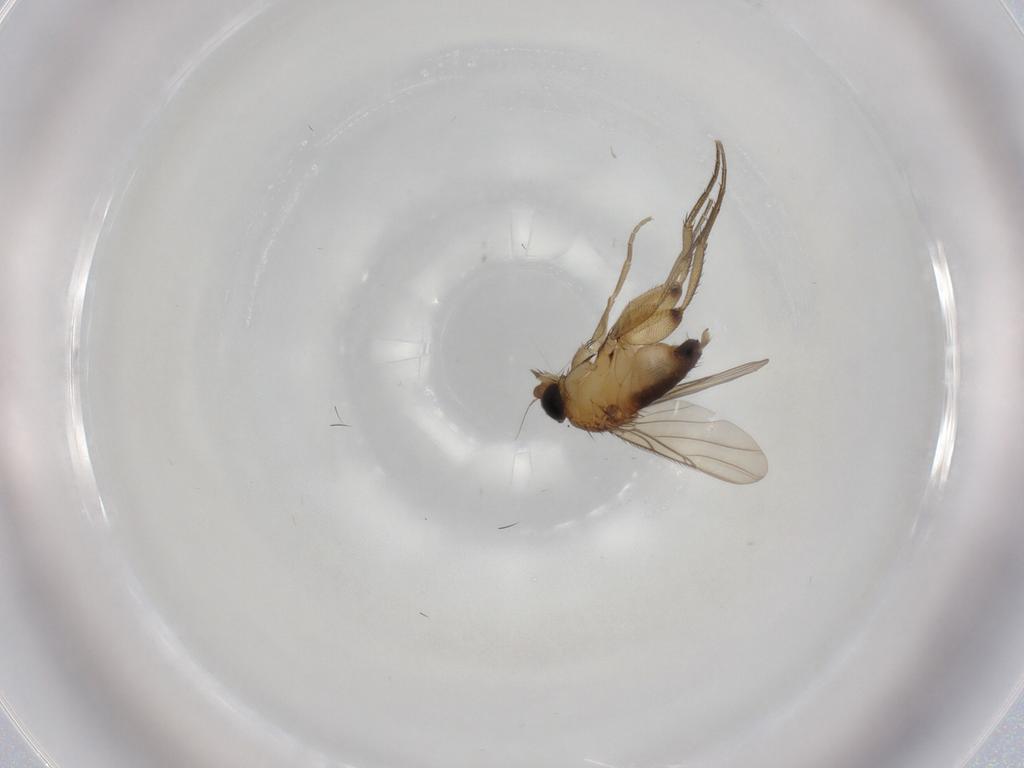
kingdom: Animalia
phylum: Arthropoda
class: Insecta
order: Diptera
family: Phoridae
